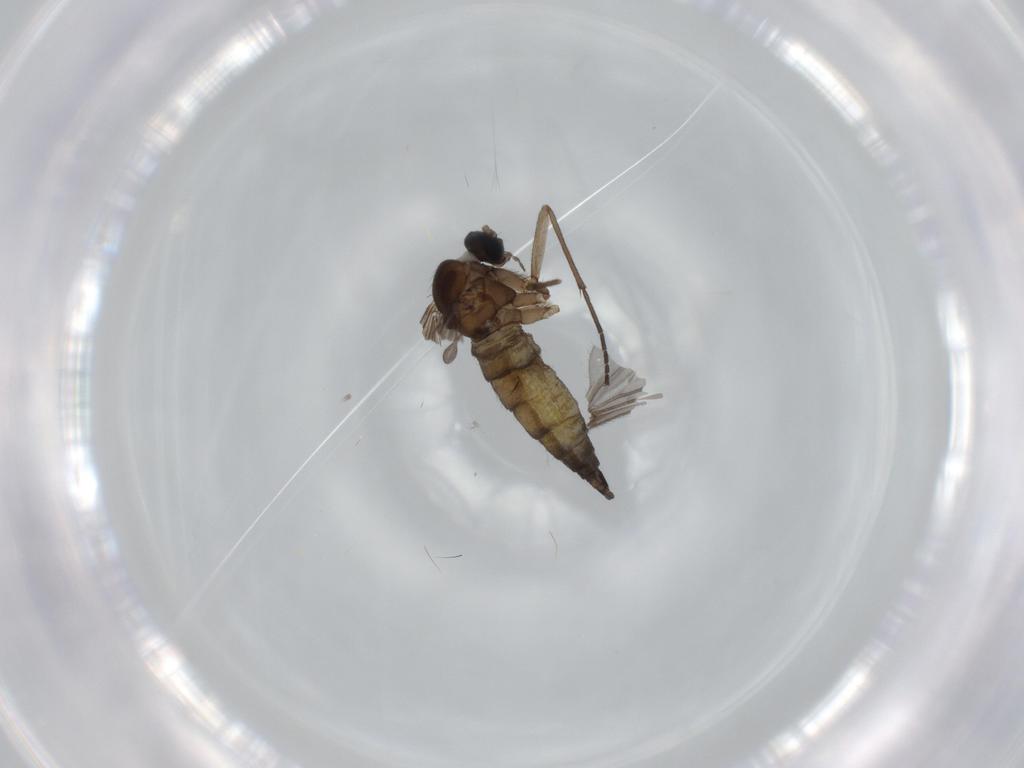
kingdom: Animalia
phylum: Arthropoda
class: Insecta
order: Diptera
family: Sciaridae
